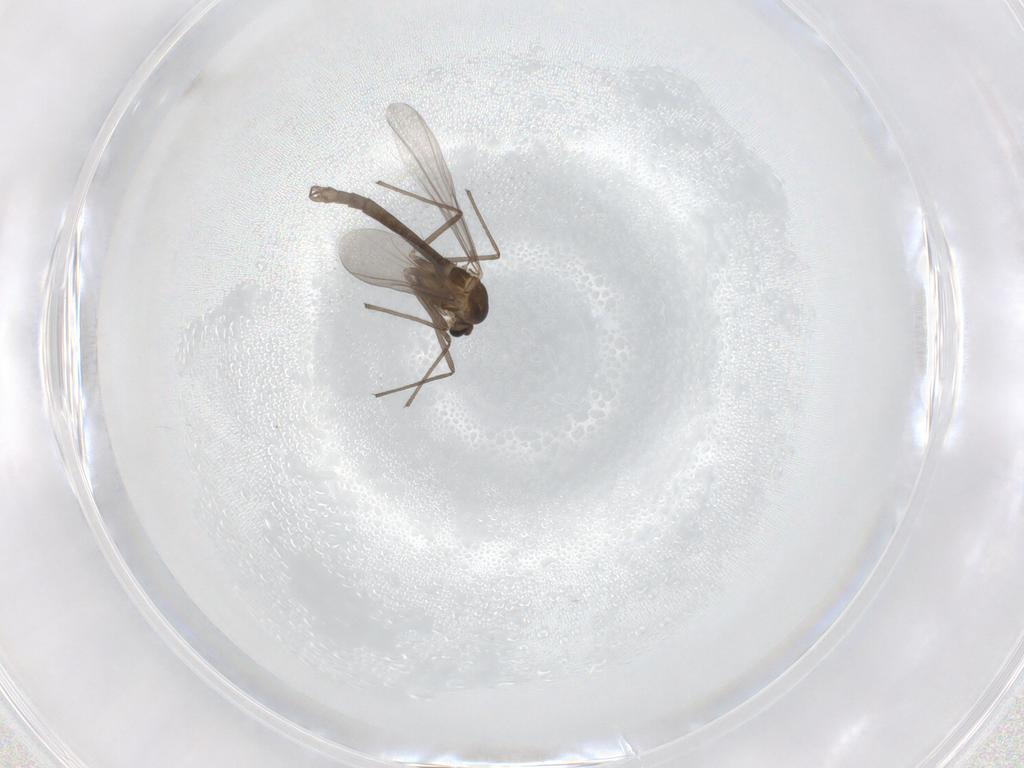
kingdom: Animalia
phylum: Arthropoda
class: Insecta
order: Diptera
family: Chironomidae
